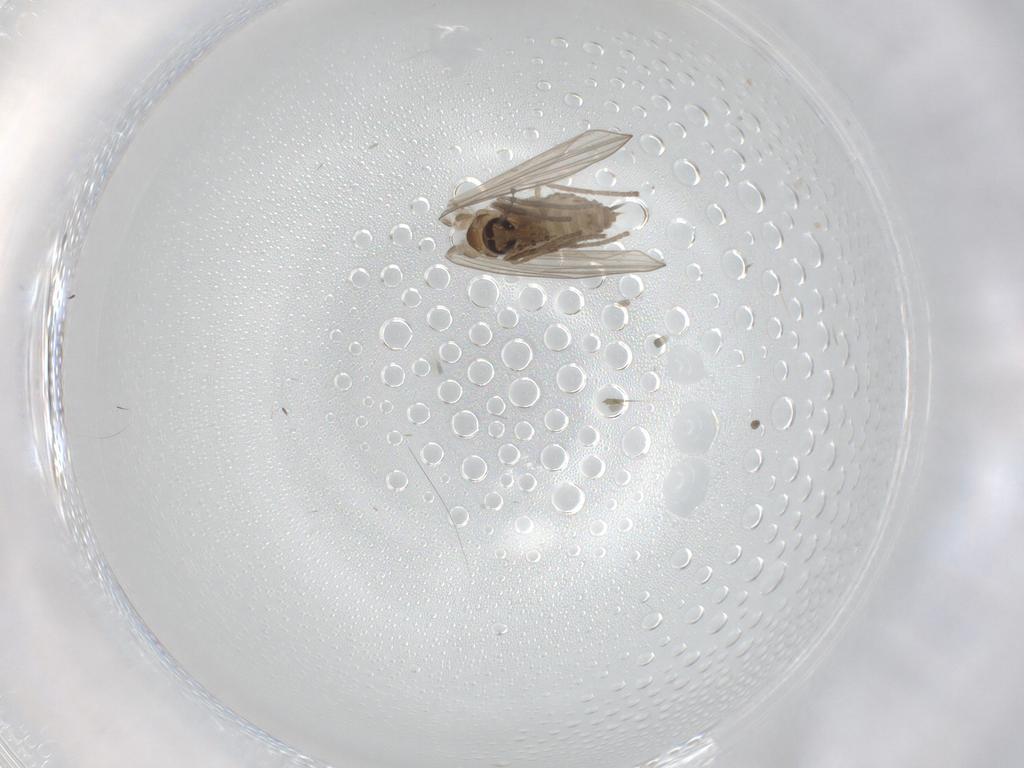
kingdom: Animalia
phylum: Arthropoda
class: Insecta
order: Diptera
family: Psychodidae
